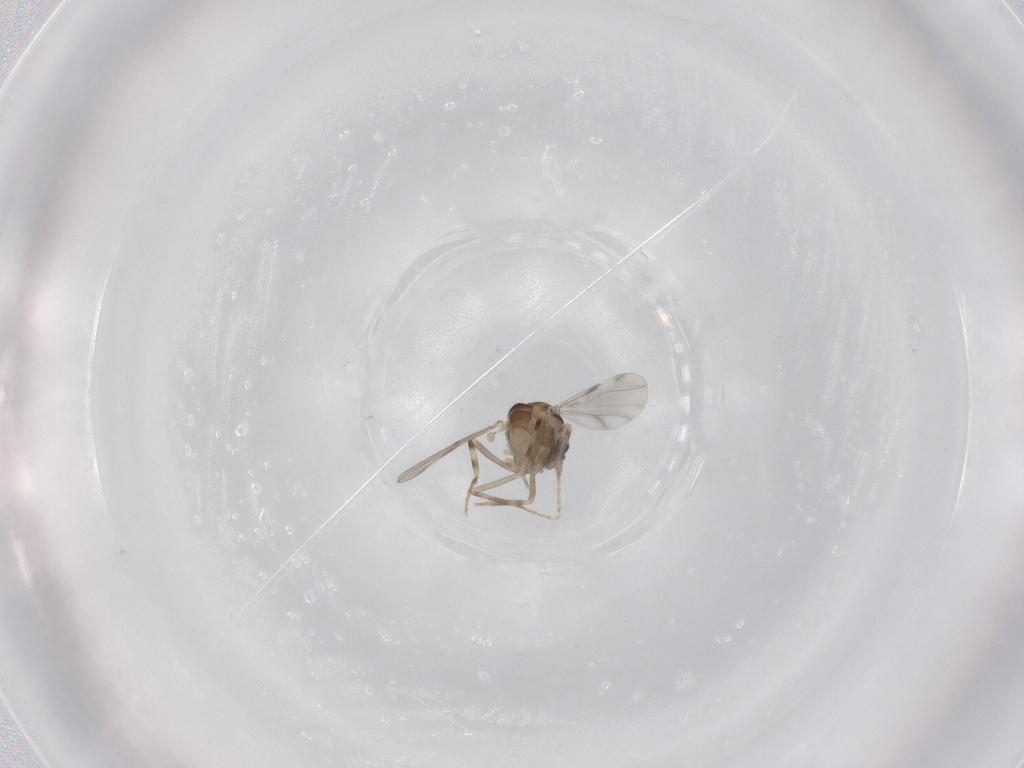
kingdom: Animalia
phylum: Arthropoda
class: Insecta
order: Diptera
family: Ceratopogonidae
